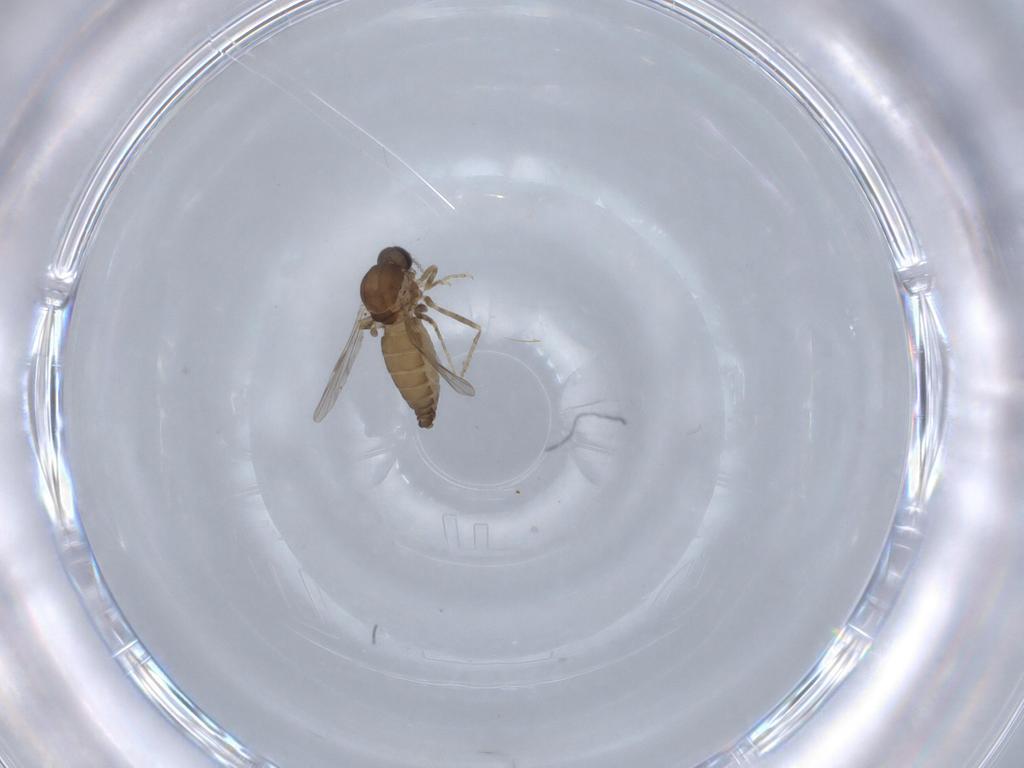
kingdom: Animalia
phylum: Arthropoda
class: Insecta
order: Diptera
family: Ceratopogonidae
